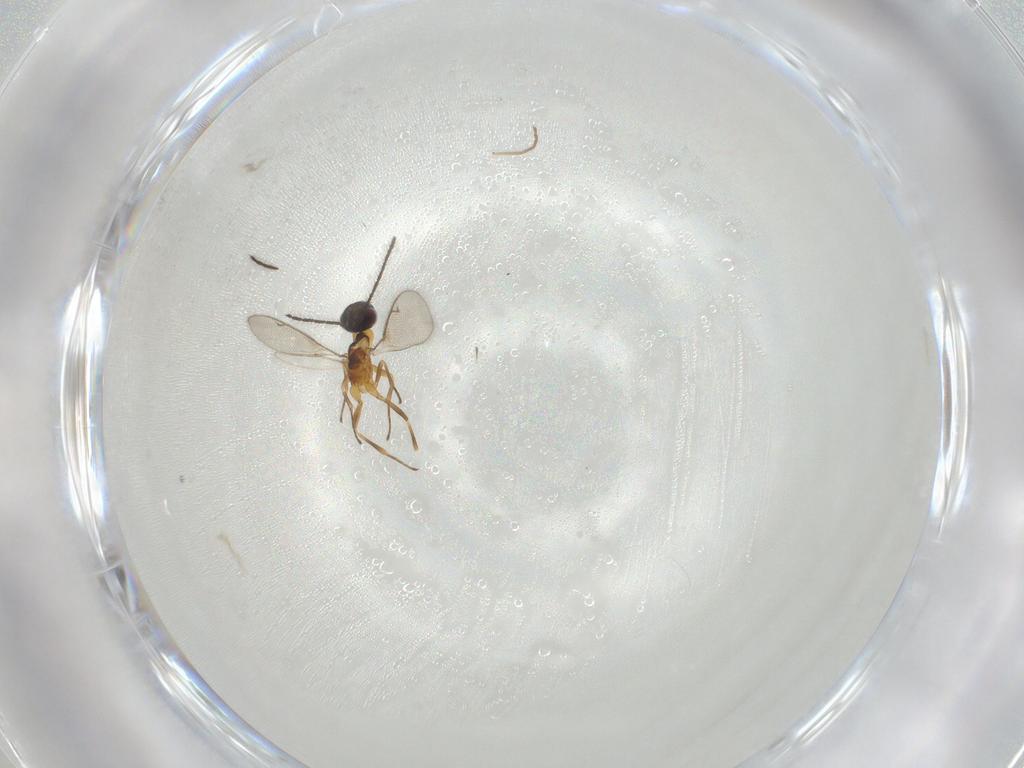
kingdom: Animalia
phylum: Arthropoda
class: Insecta
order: Hymenoptera
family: Eupelmidae
